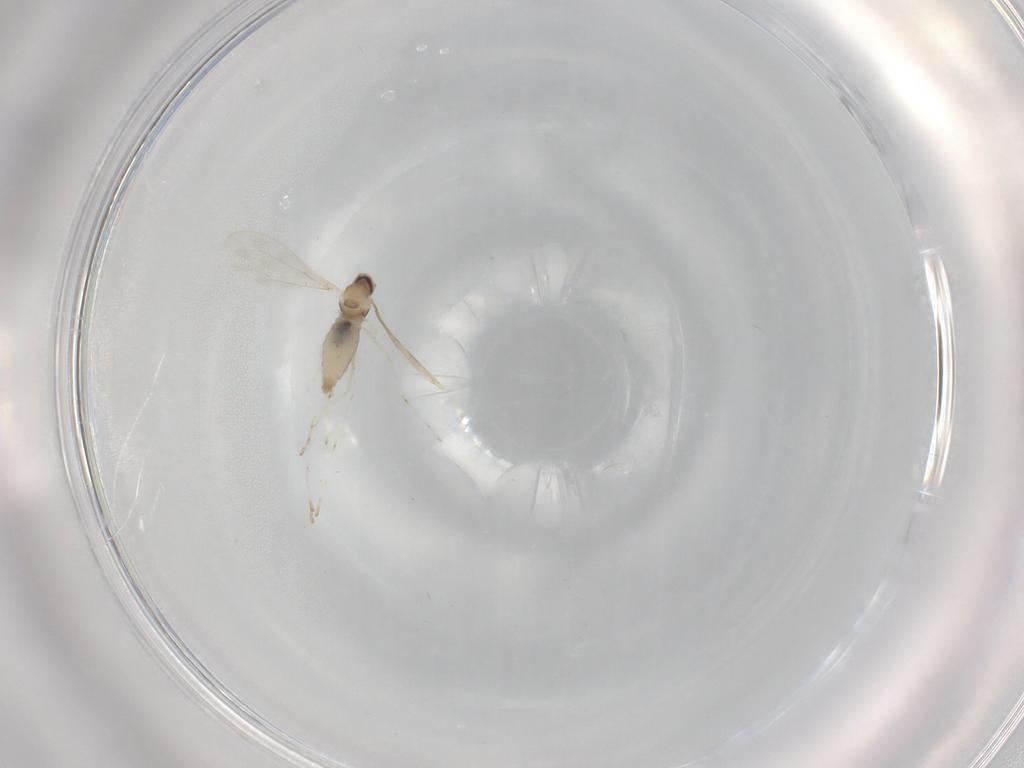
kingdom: Animalia
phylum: Arthropoda
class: Insecta
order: Diptera
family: Cecidomyiidae
